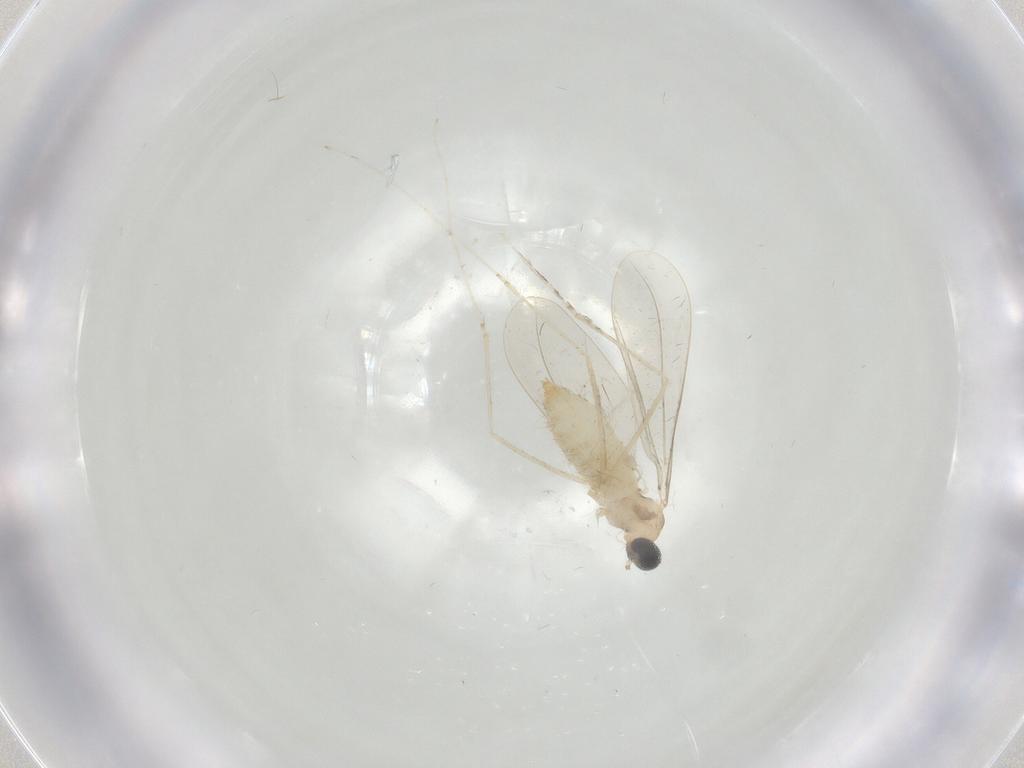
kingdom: Animalia
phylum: Arthropoda
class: Insecta
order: Diptera
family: Cecidomyiidae
